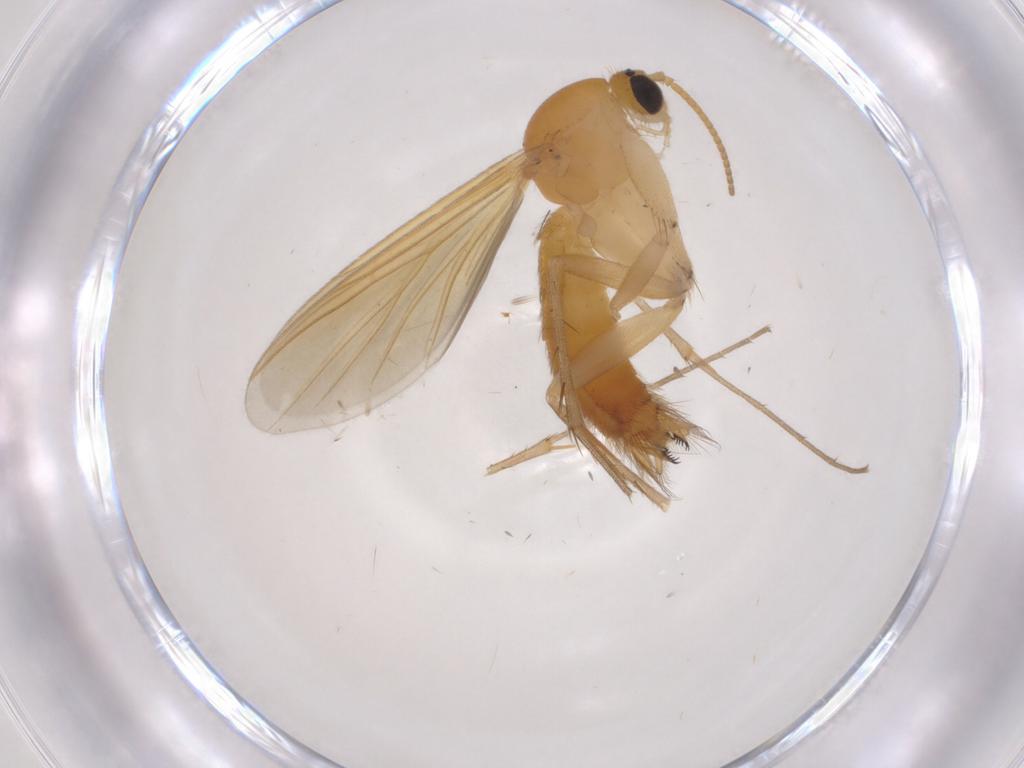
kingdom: Animalia
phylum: Arthropoda
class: Insecta
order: Diptera
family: Mycetophilidae
